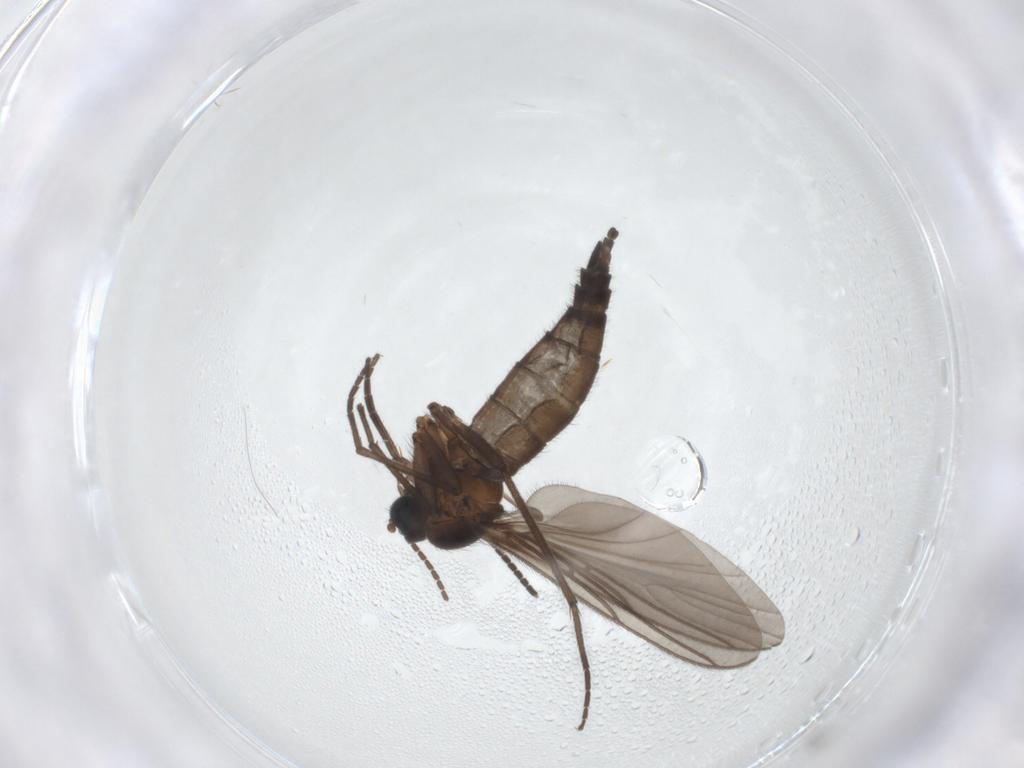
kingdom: Animalia
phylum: Arthropoda
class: Insecta
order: Diptera
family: Sciaridae
